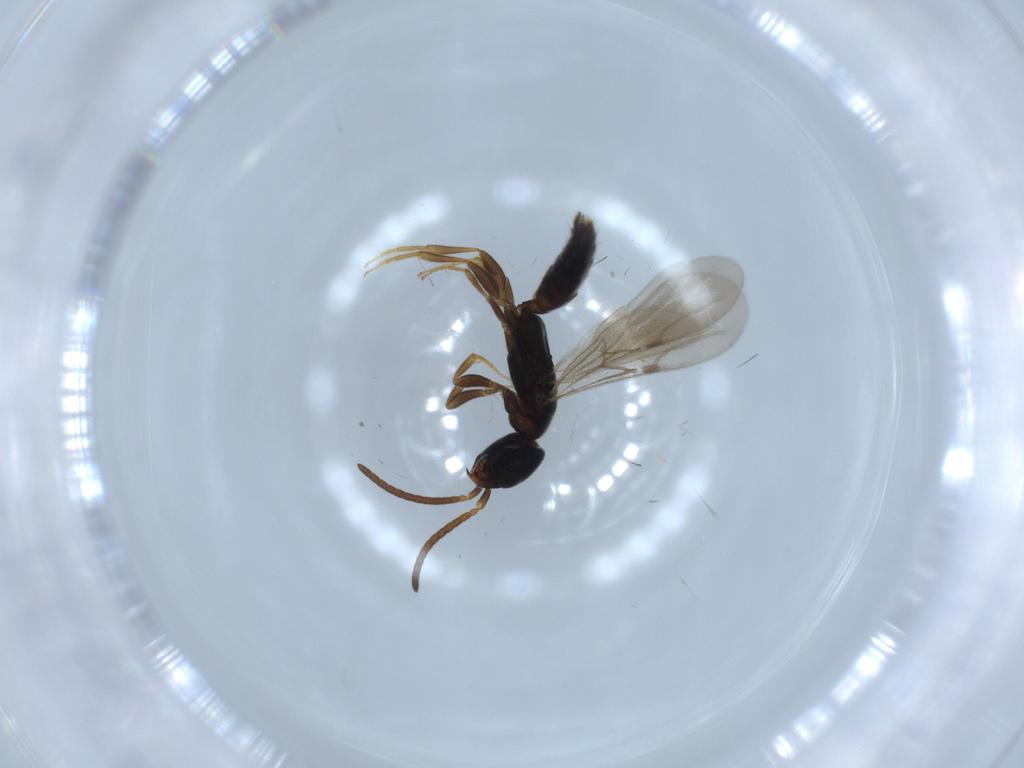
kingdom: Animalia
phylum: Arthropoda
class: Insecta
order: Hymenoptera
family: Bethylidae
